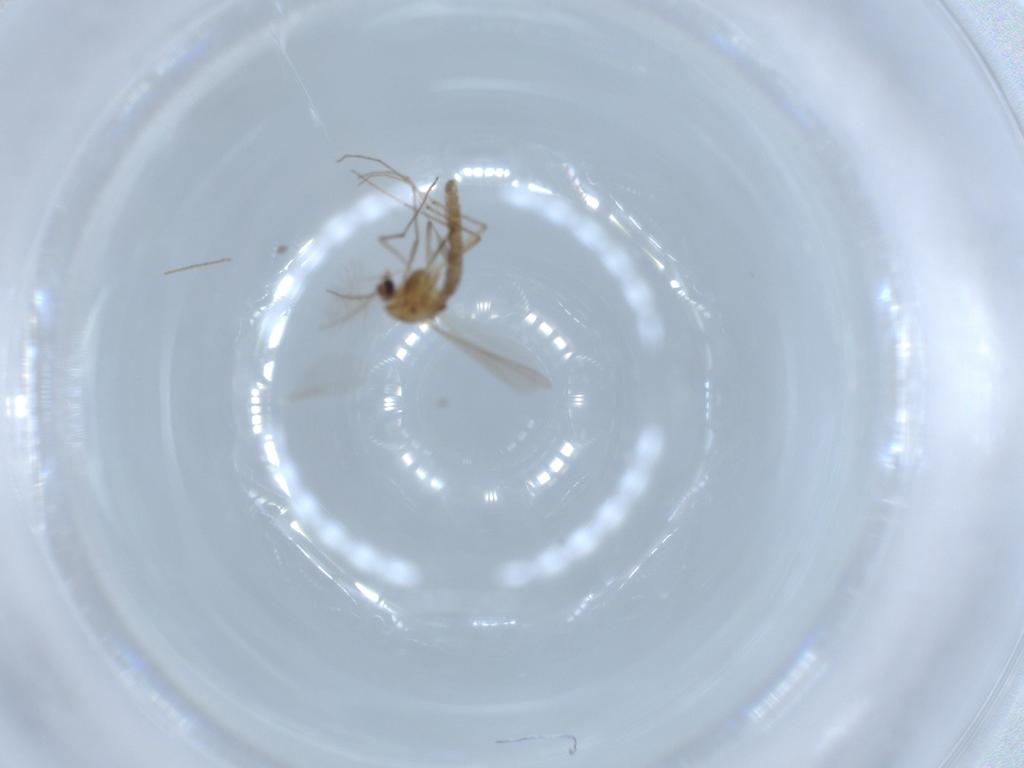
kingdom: Animalia
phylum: Arthropoda
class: Insecta
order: Diptera
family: Chironomidae
